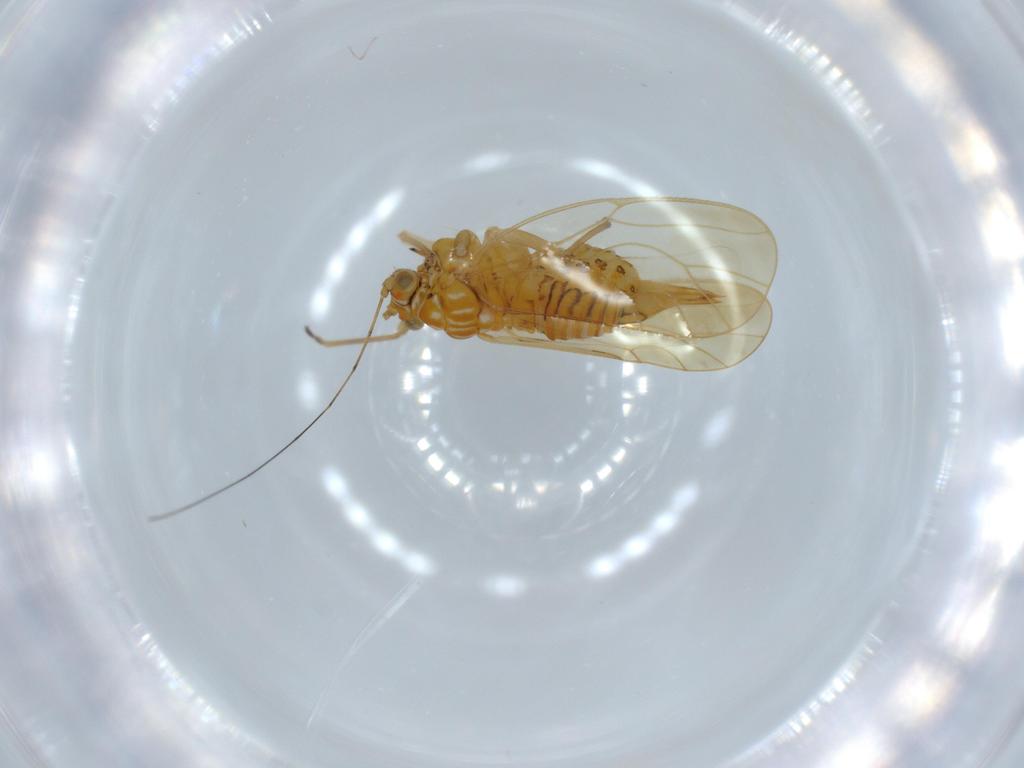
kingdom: Animalia
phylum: Arthropoda
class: Insecta
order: Hemiptera
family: Psyllidae
